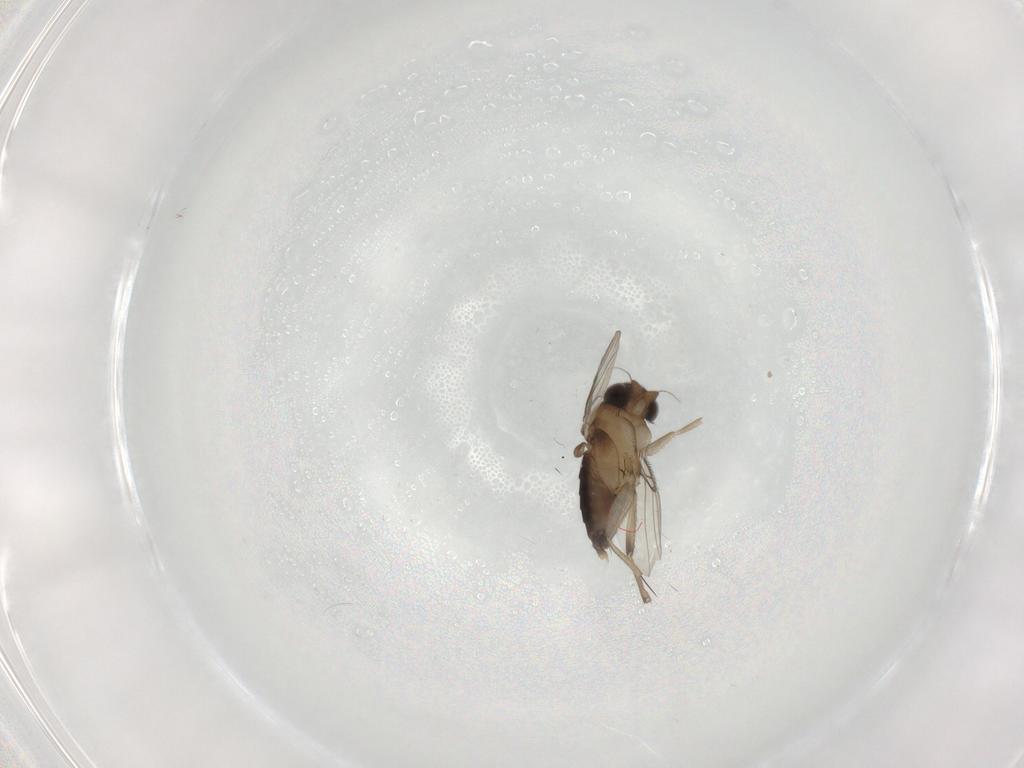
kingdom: Animalia
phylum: Arthropoda
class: Insecta
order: Diptera
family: Phoridae
